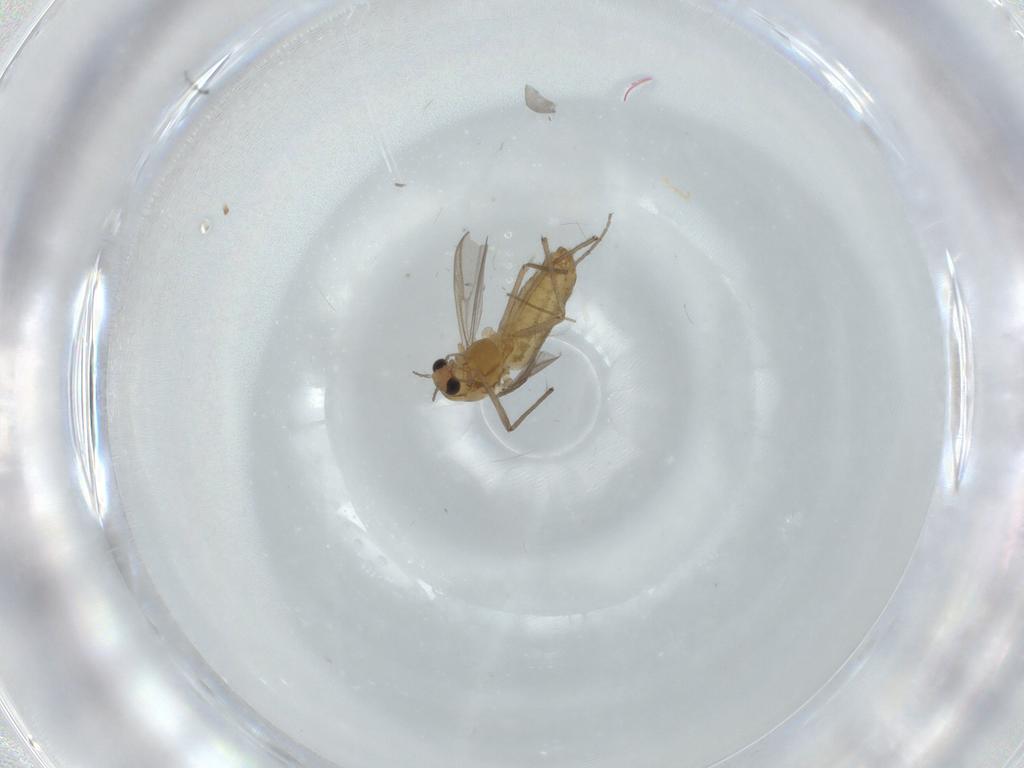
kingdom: Animalia
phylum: Arthropoda
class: Insecta
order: Diptera
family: Chironomidae
